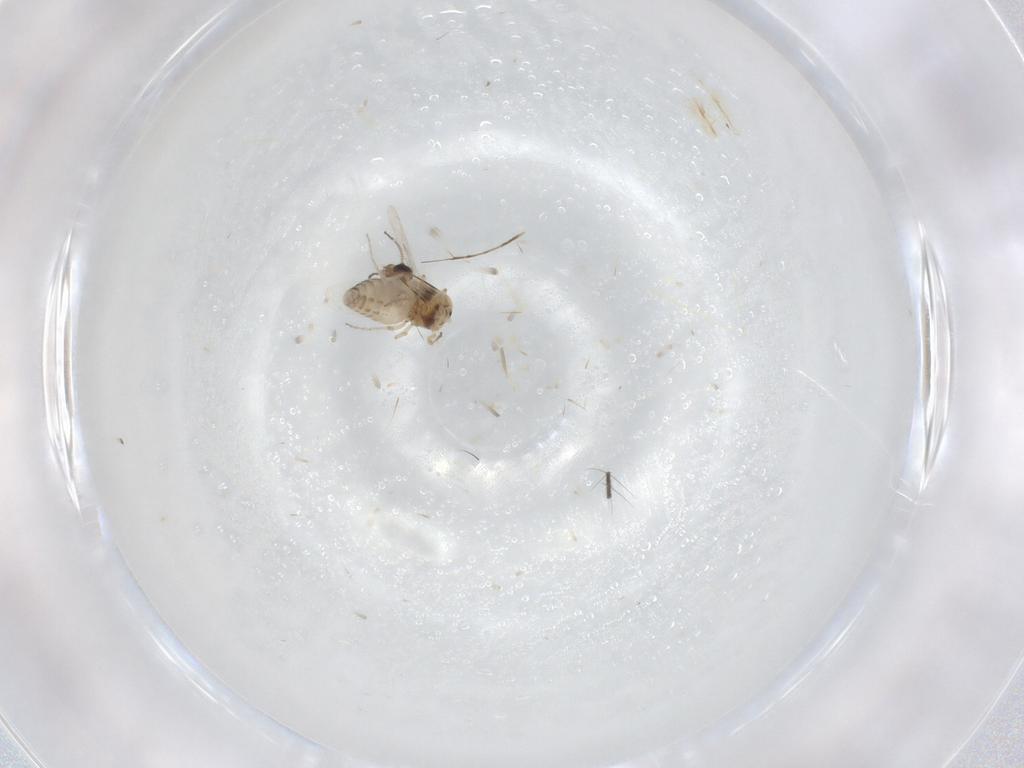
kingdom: Animalia
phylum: Arthropoda
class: Insecta
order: Diptera
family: Ceratopogonidae
